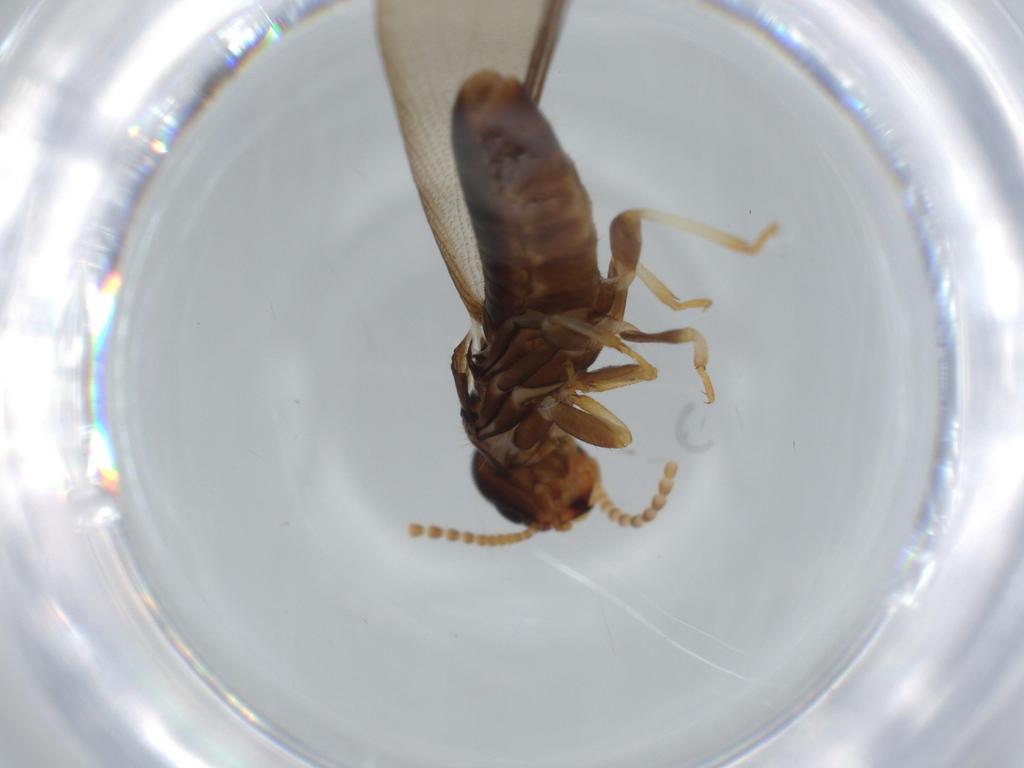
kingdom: Animalia
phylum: Arthropoda
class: Insecta
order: Blattodea
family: Kalotermitidae
